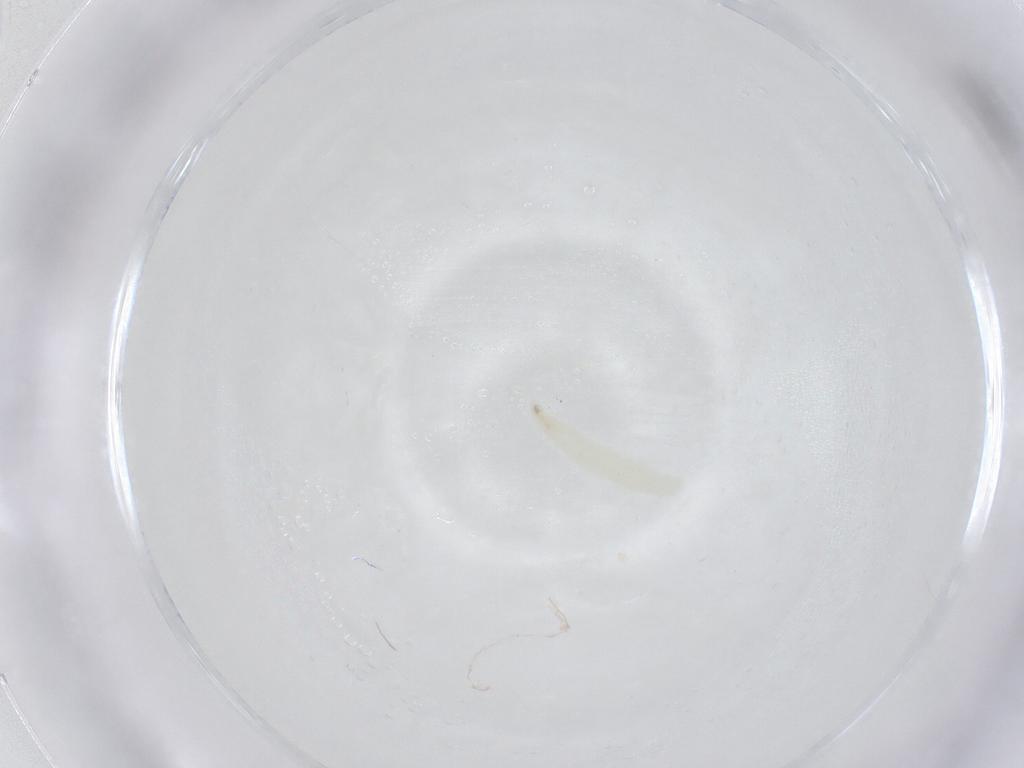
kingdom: Animalia
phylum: Arthropoda
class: Insecta
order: Diptera
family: Sarcophagidae
